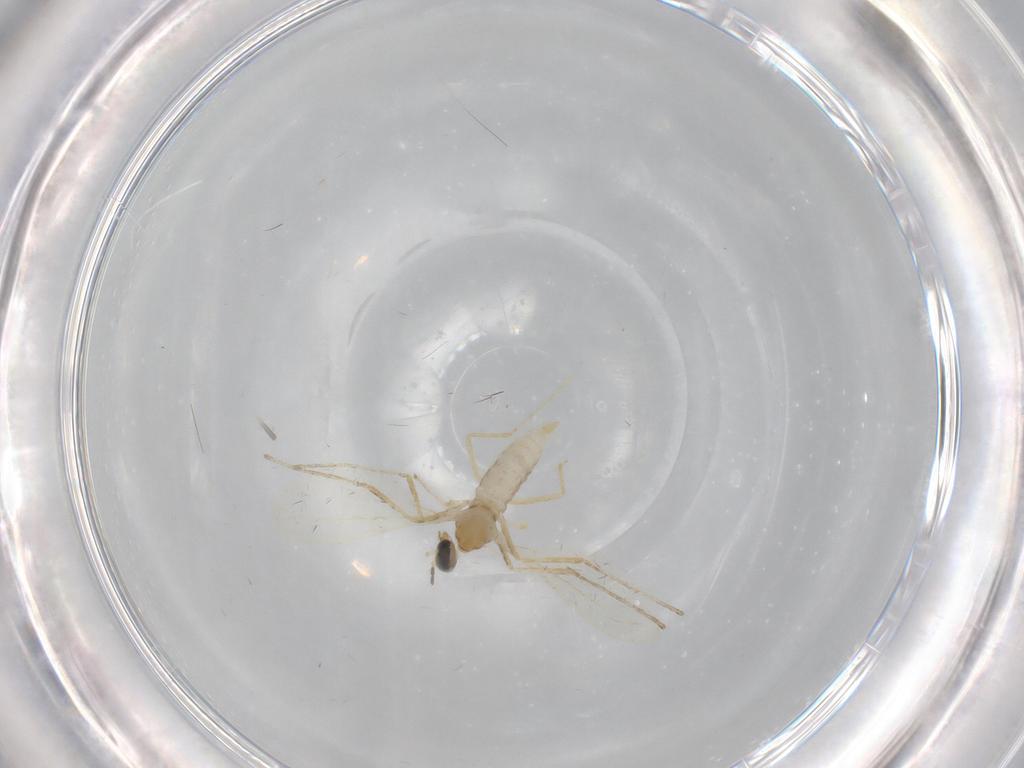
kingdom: Animalia
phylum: Arthropoda
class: Insecta
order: Diptera
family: Cecidomyiidae
